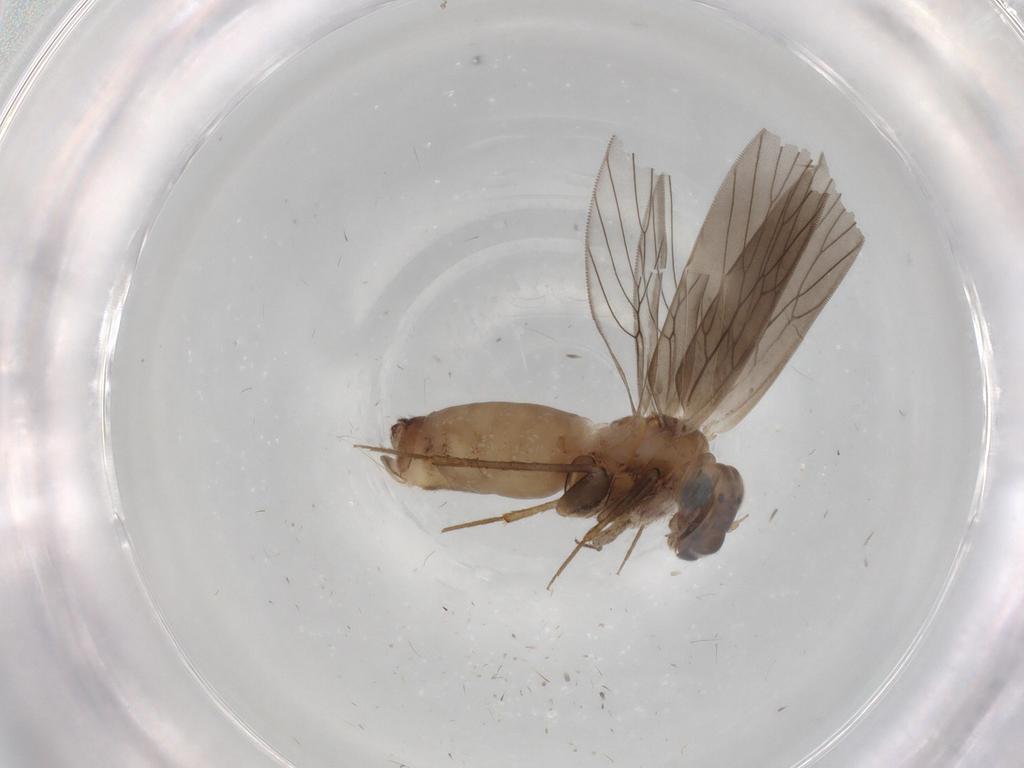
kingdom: Animalia
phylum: Arthropoda
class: Insecta
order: Psocodea
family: Lepidopsocidae
